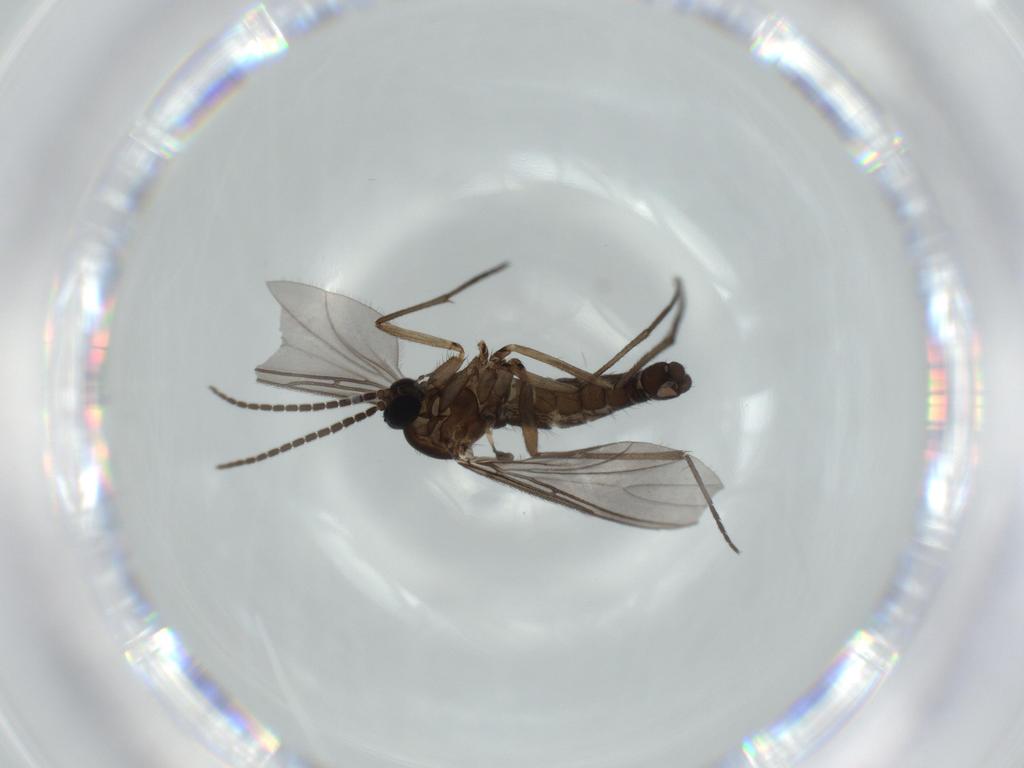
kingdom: Animalia
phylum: Arthropoda
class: Insecta
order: Diptera
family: Sciaridae
